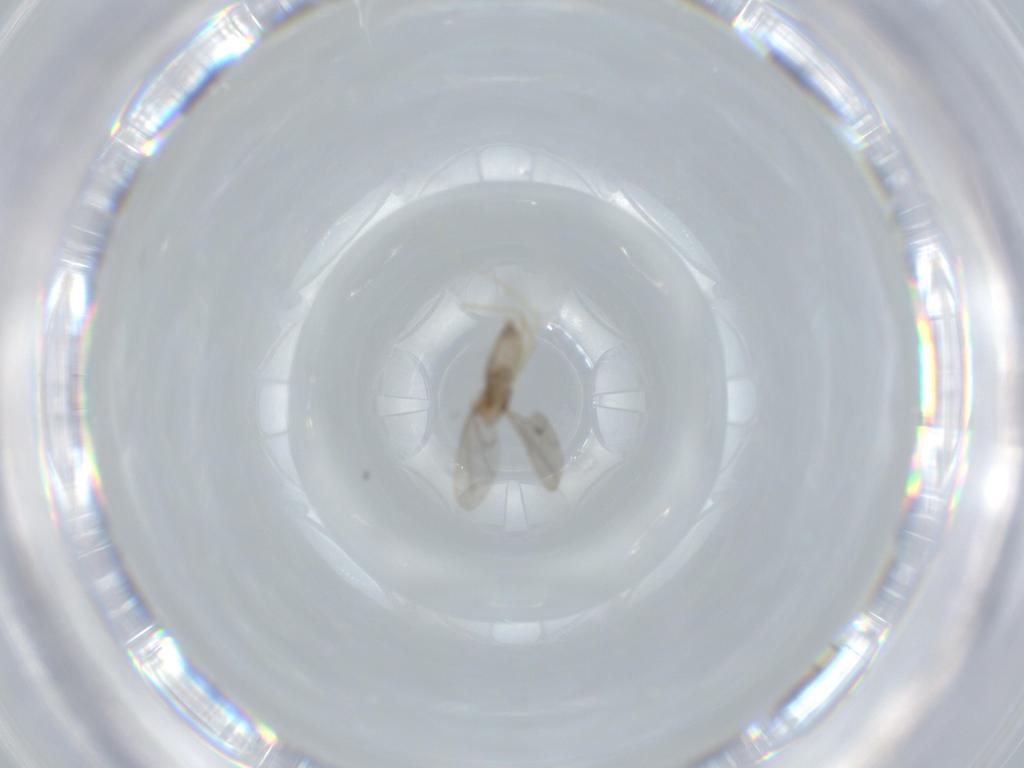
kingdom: Animalia
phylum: Arthropoda
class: Insecta
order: Diptera
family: Cecidomyiidae
